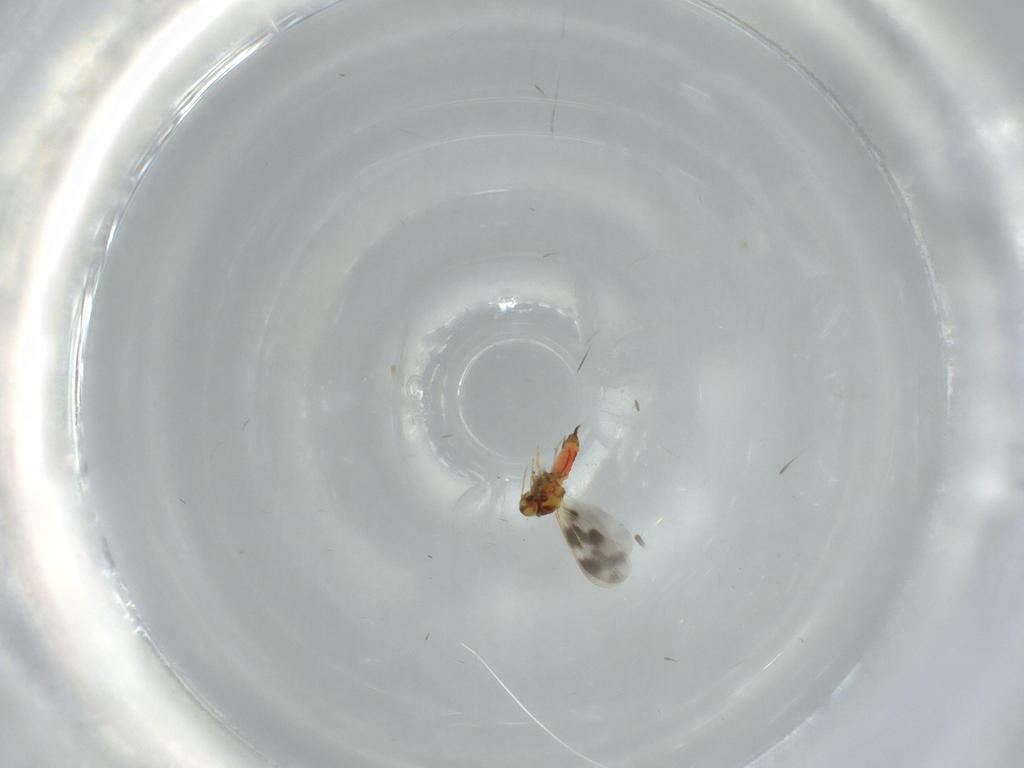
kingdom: Animalia
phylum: Arthropoda
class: Insecta
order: Hemiptera
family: Aleyrodidae
